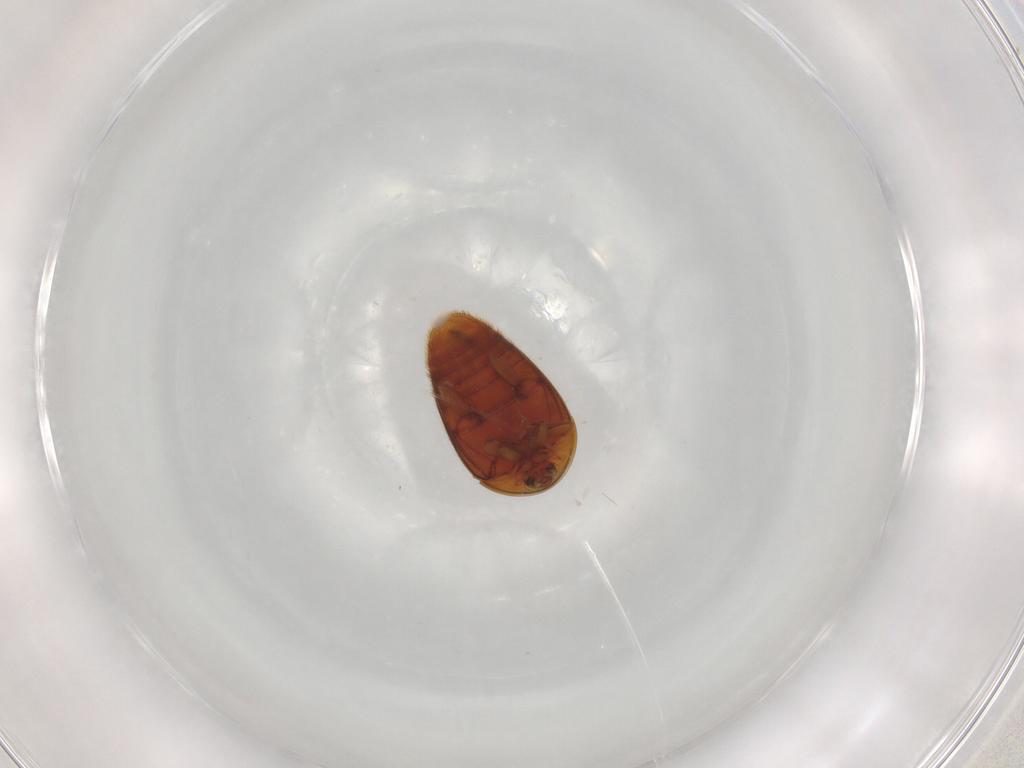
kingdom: Animalia
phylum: Arthropoda
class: Insecta
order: Coleoptera
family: Corylophidae
